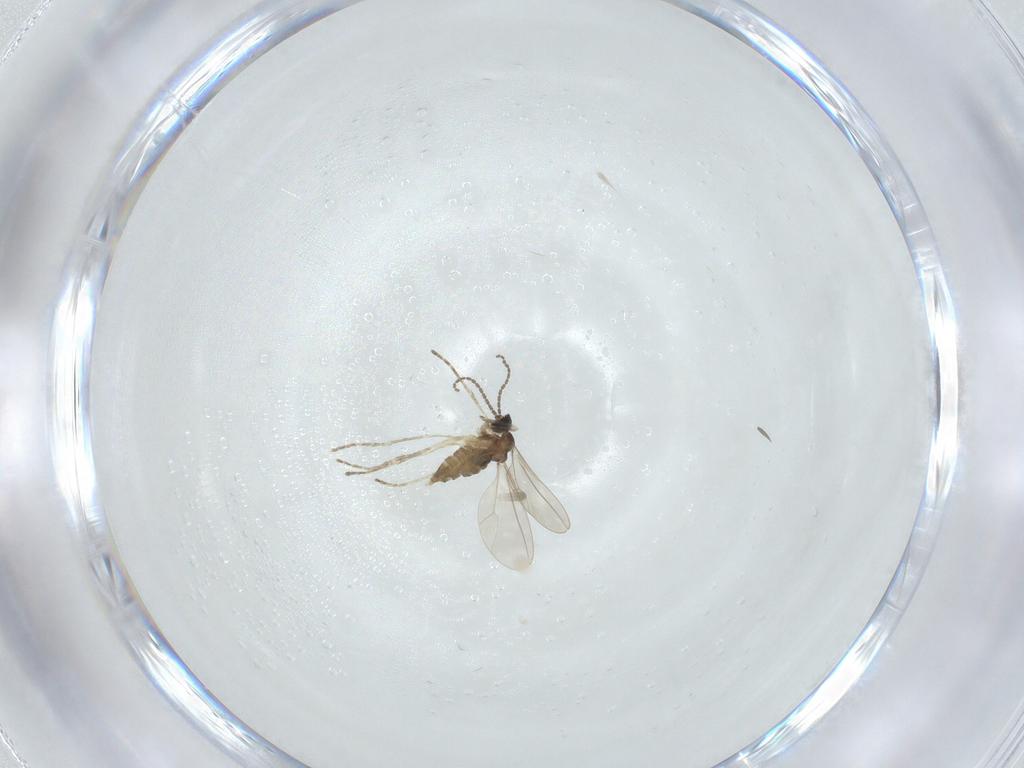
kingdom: Animalia
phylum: Arthropoda
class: Insecta
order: Diptera
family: Cecidomyiidae
